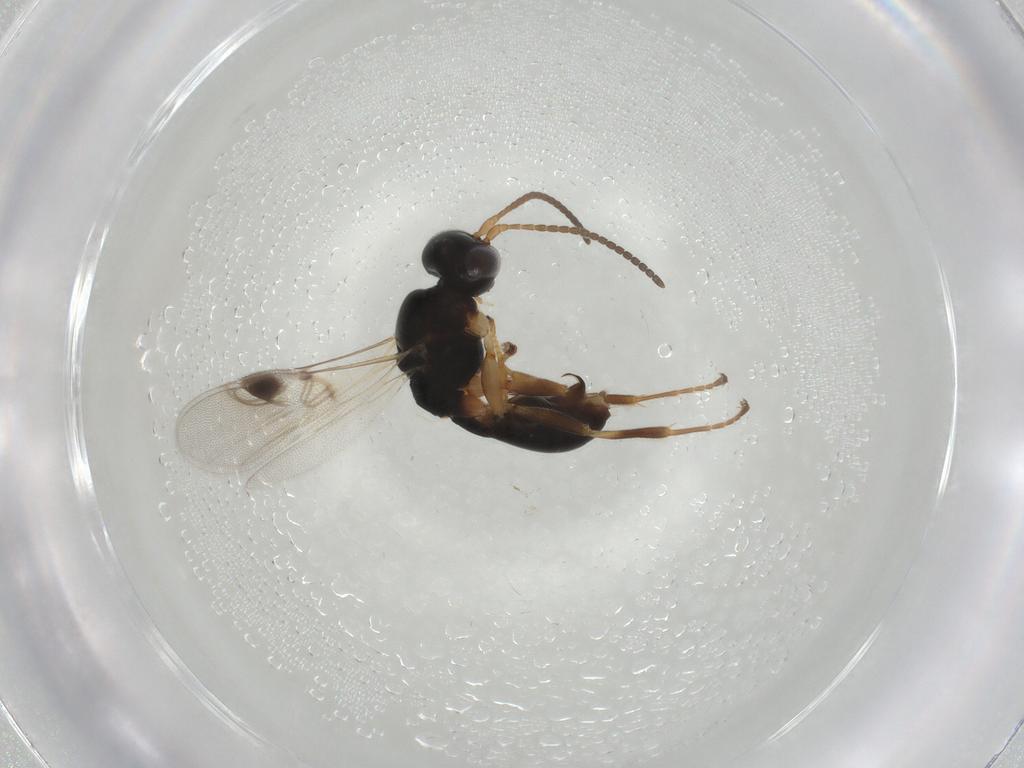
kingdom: Animalia
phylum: Arthropoda
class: Insecta
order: Hymenoptera
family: Braconidae
